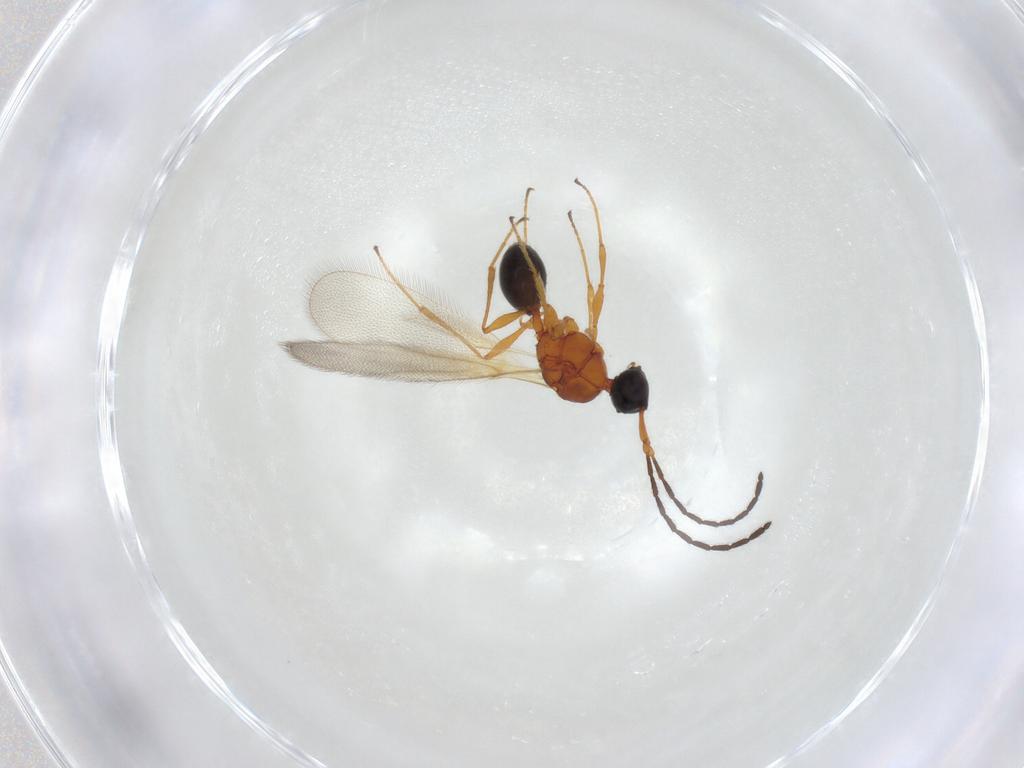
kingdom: Animalia
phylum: Arthropoda
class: Insecta
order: Hymenoptera
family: Diapriidae
